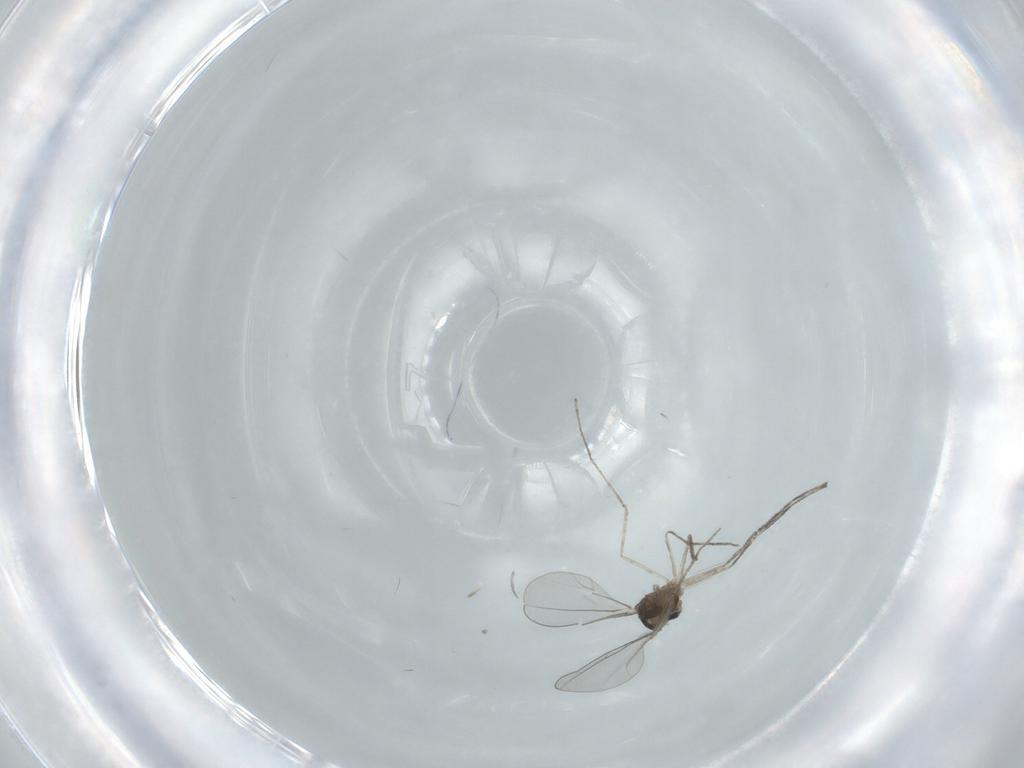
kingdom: Animalia
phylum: Arthropoda
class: Insecta
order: Diptera
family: Cecidomyiidae
